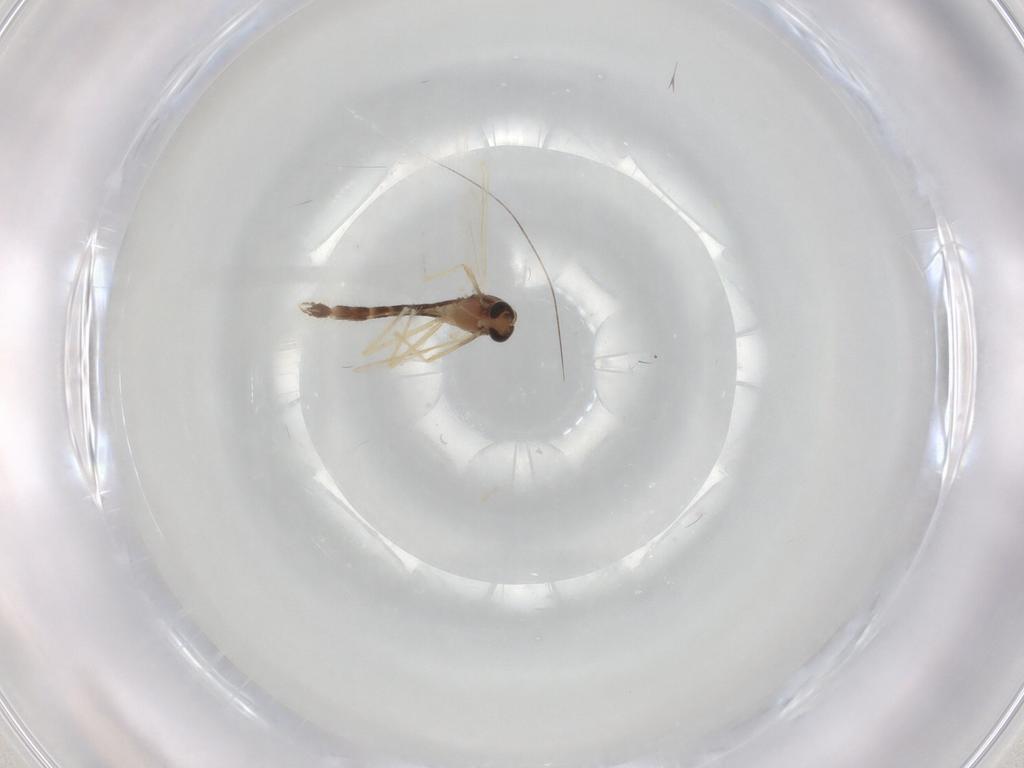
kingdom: Animalia
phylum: Arthropoda
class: Insecta
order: Diptera
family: Chironomidae
